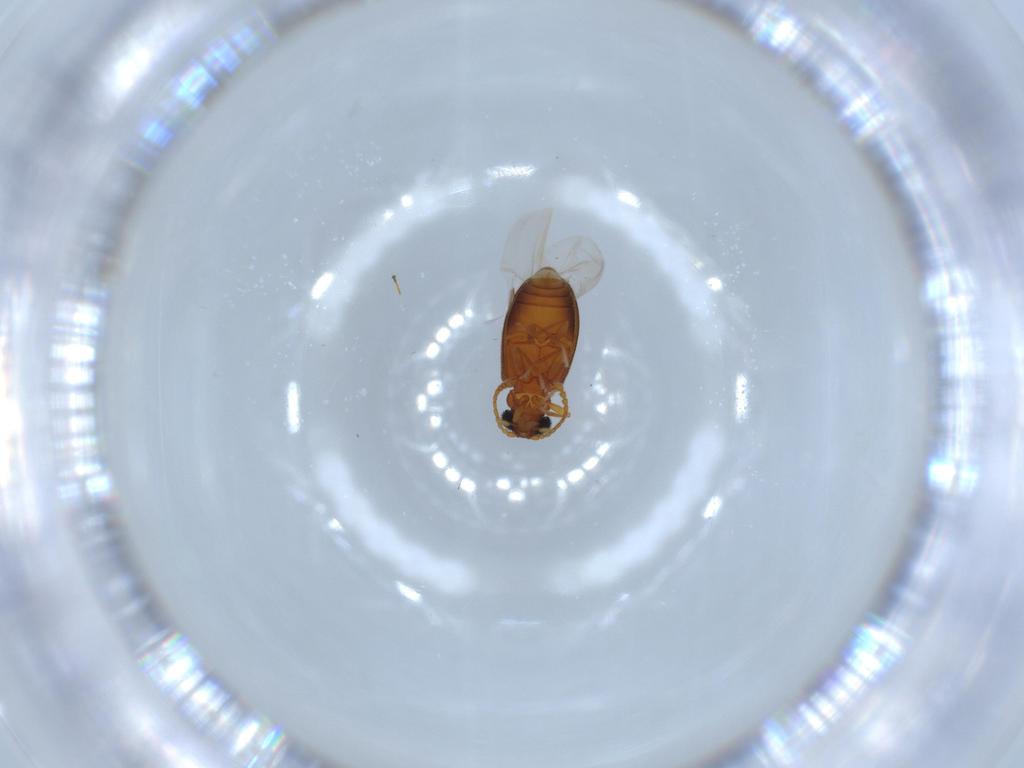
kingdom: Animalia
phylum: Arthropoda
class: Insecta
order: Coleoptera
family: Aderidae
